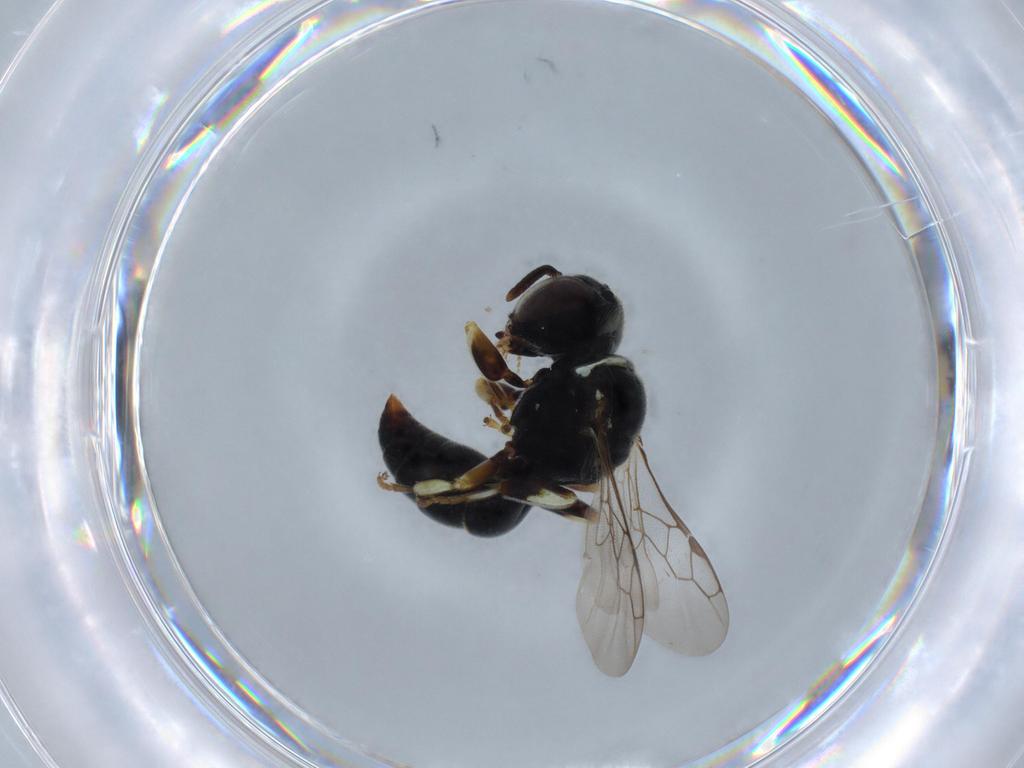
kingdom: Animalia
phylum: Arthropoda
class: Insecta
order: Hymenoptera
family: Crabronidae
